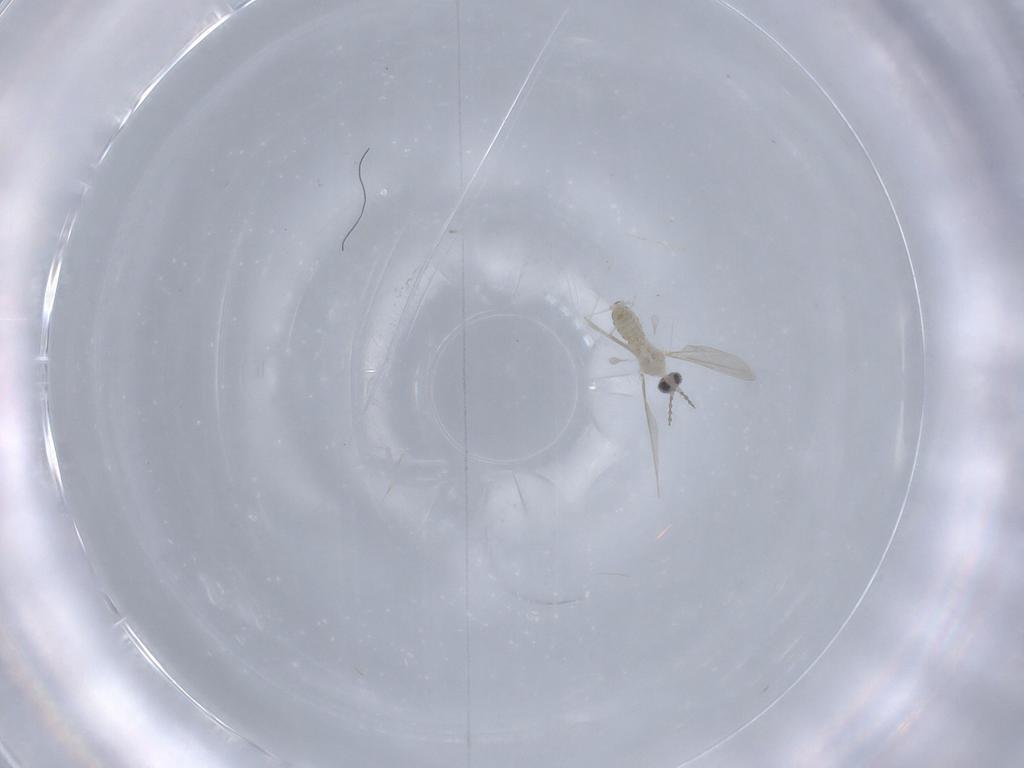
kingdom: Animalia
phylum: Arthropoda
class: Insecta
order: Diptera
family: Cecidomyiidae
